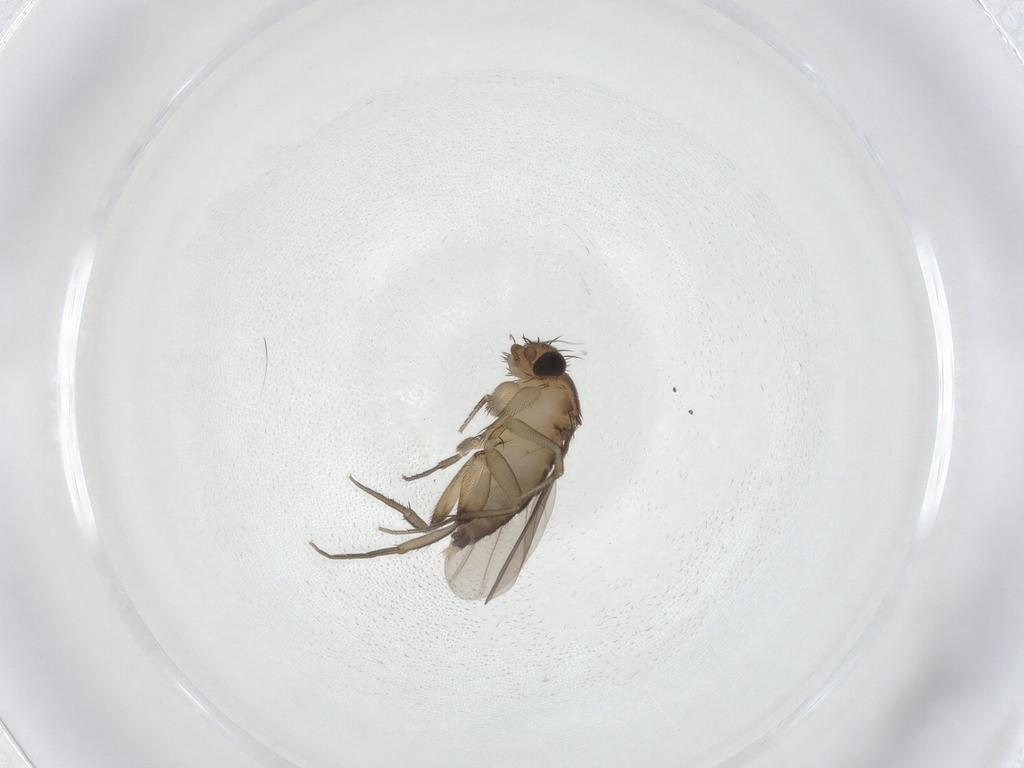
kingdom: Animalia
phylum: Arthropoda
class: Insecta
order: Diptera
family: Phoridae
